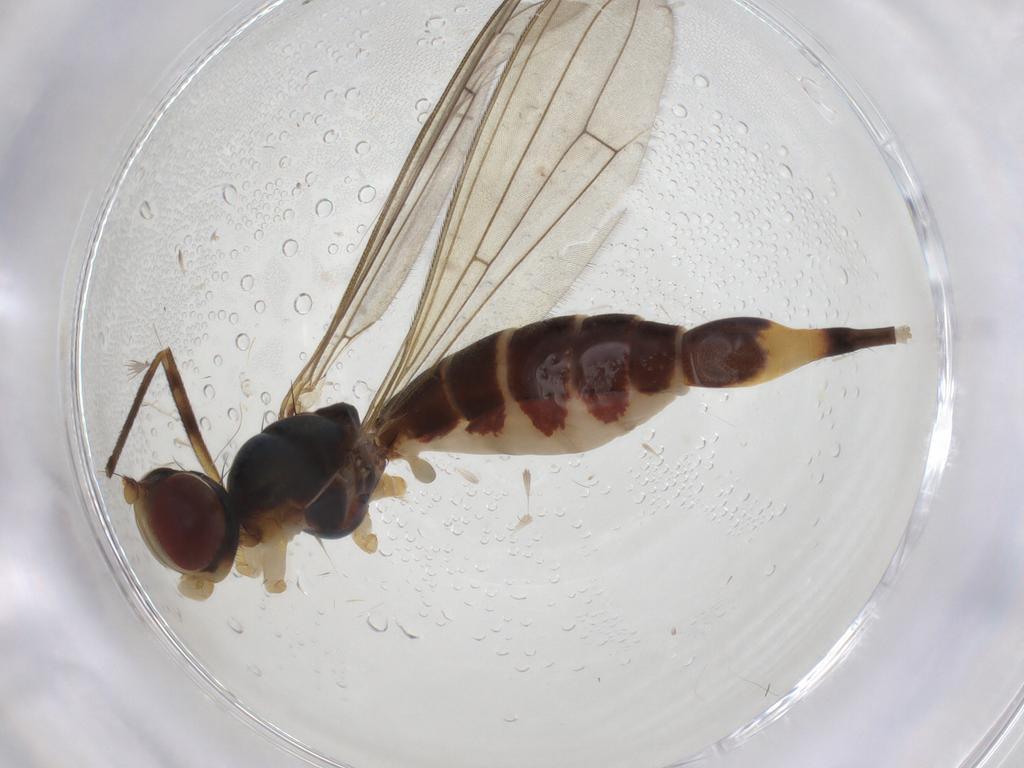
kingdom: Animalia
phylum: Arthropoda
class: Insecta
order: Diptera
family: Micropezidae
